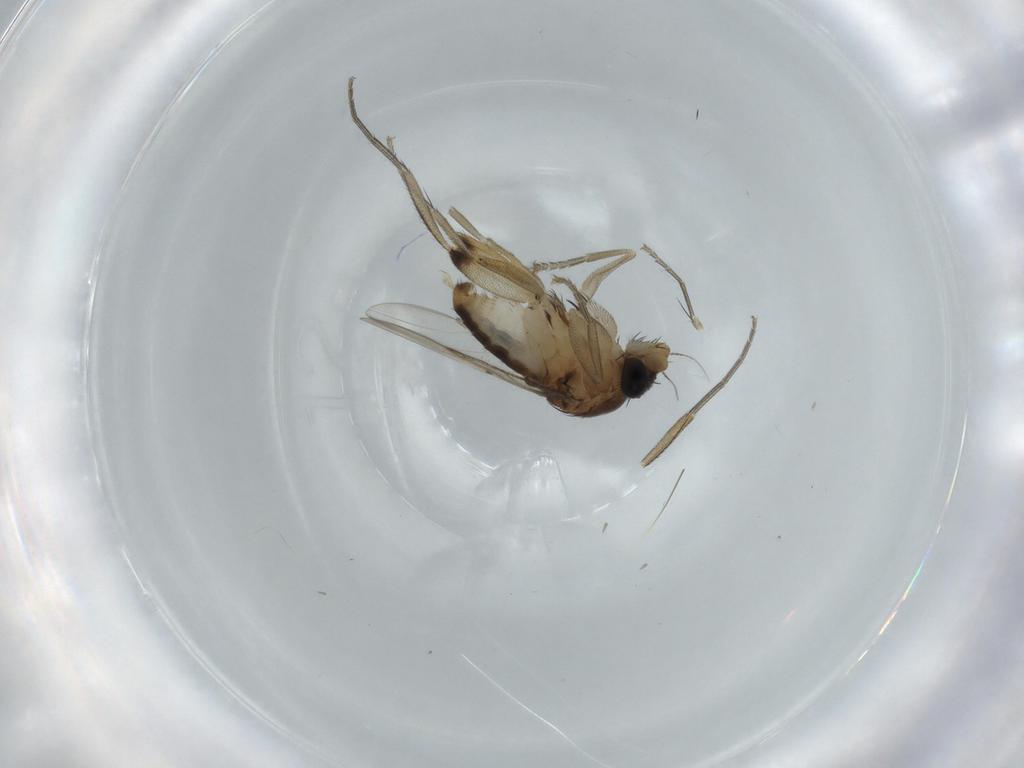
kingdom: Animalia
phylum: Arthropoda
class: Insecta
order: Diptera
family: Phoridae
